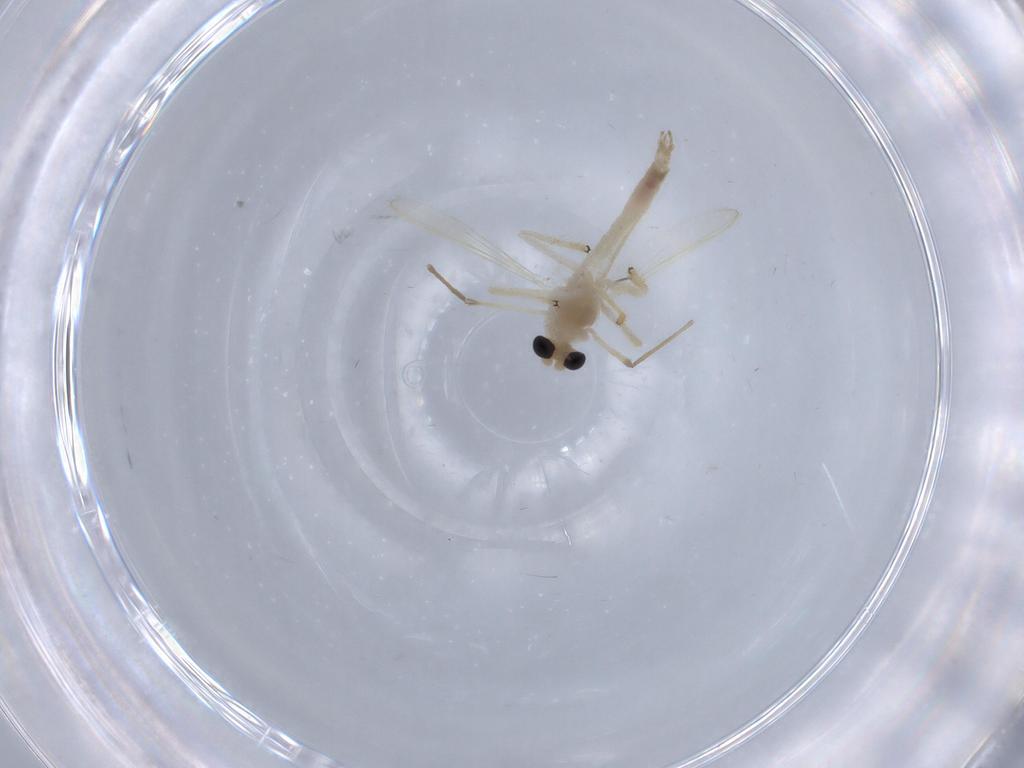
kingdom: Animalia
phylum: Arthropoda
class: Insecta
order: Diptera
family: Chironomidae
